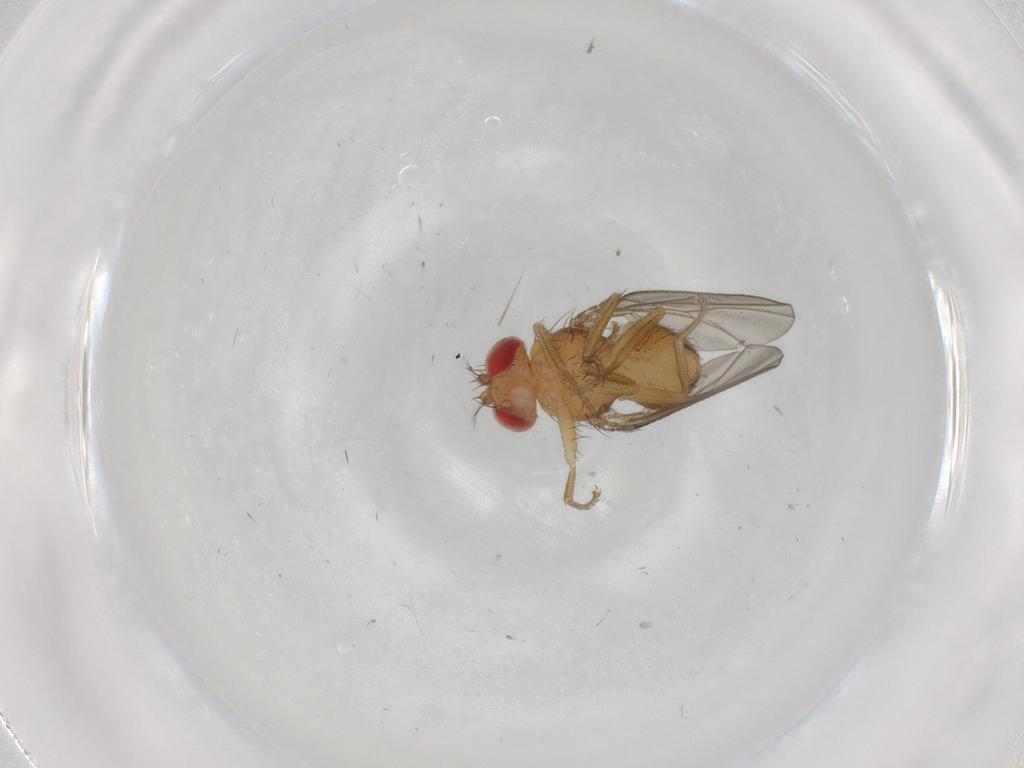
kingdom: Animalia
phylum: Arthropoda
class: Insecta
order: Diptera
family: Drosophilidae
